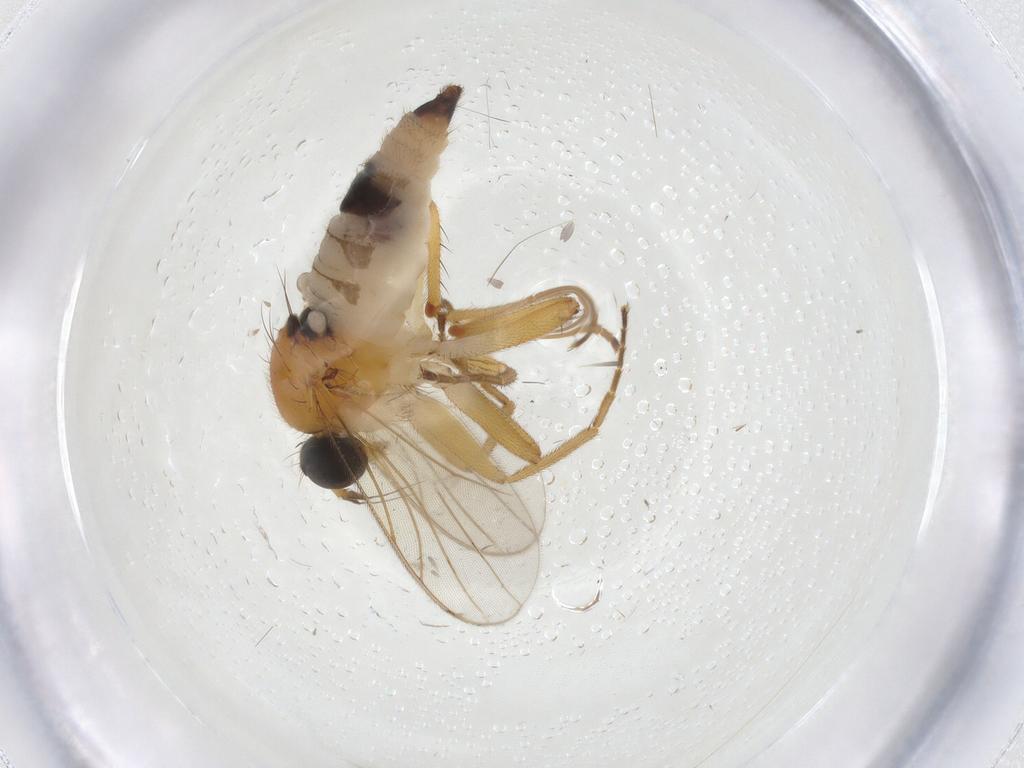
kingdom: Animalia
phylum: Arthropoda
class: Insecta
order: Diptera
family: Hybotidae
